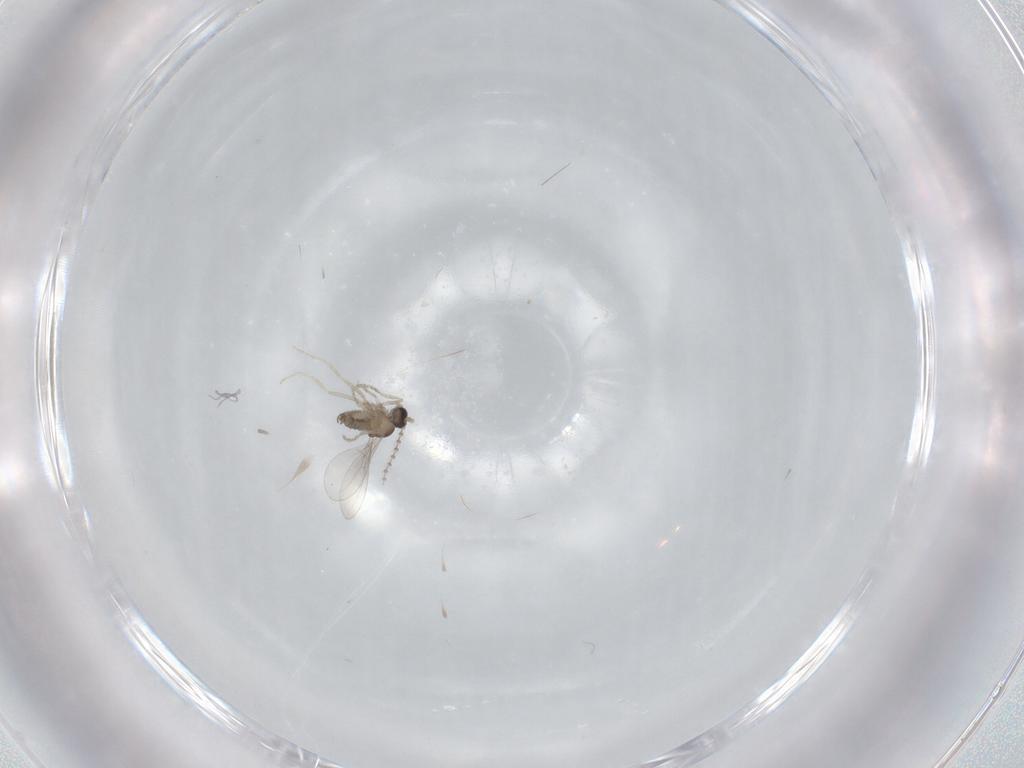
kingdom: Animalia
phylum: Arthropoda
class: Insecta
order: Diptera
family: Cecidomyiidae
